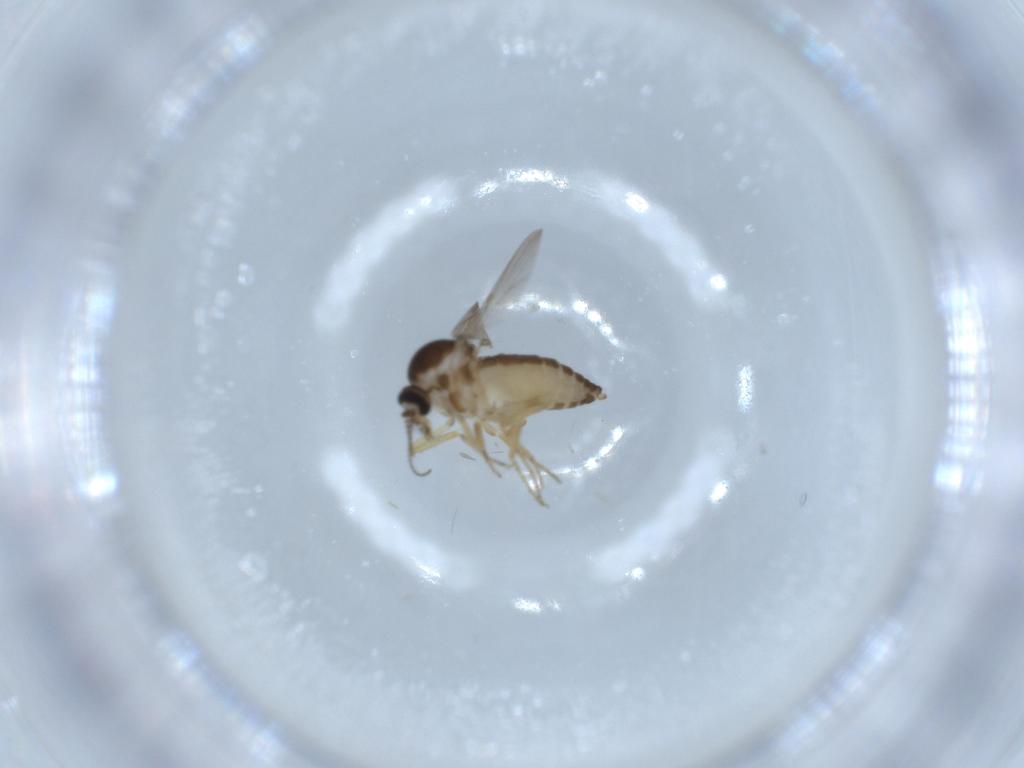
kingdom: Animalia
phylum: Arthropoda
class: Insecta
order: Diptera
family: Ceratopogonidae
